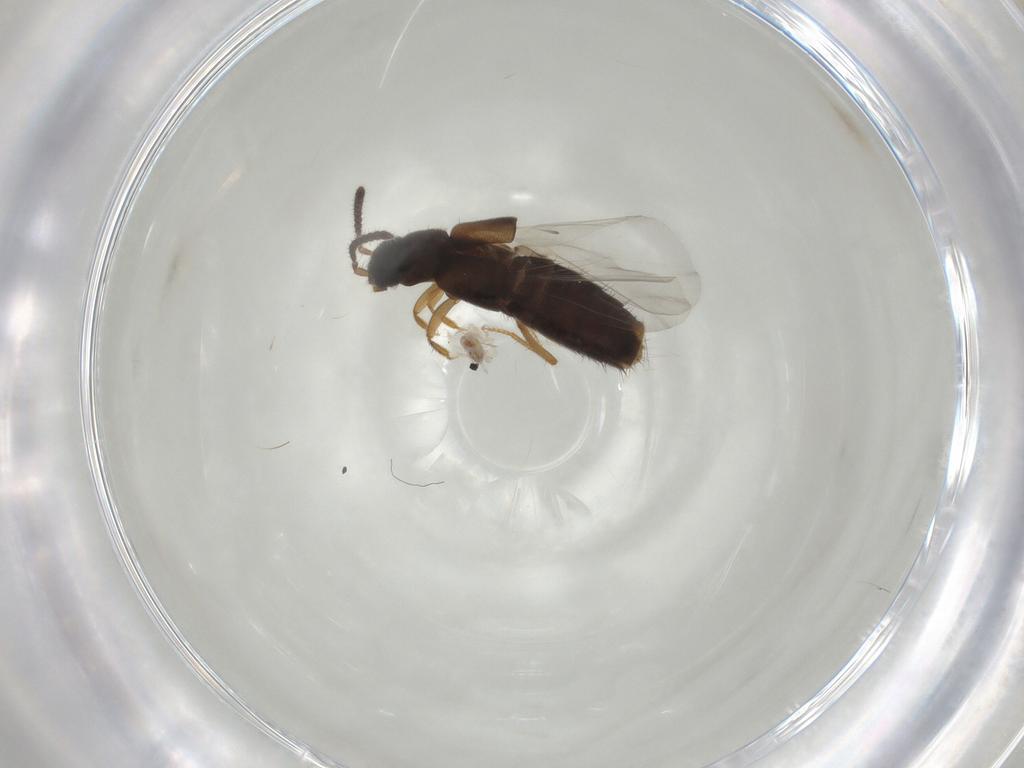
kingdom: Animalia
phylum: Arthropoda
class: Insecta
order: Coleoptera
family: Staphylinidae
